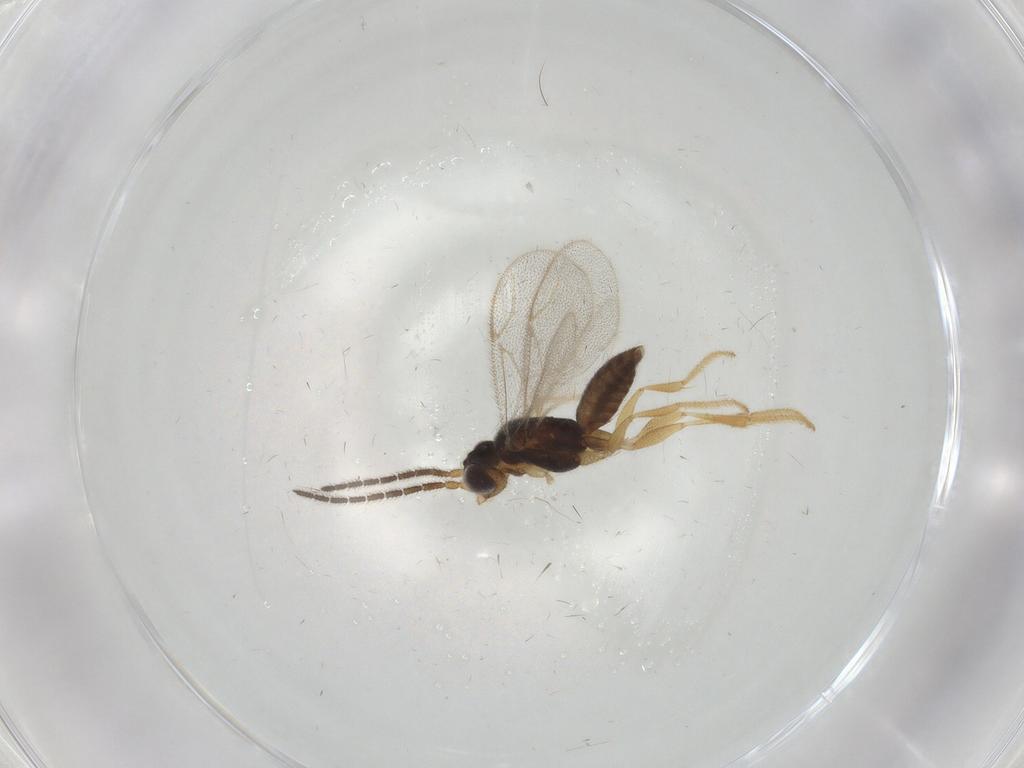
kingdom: Animalia
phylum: Arthropoda
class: Insecta
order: Hymenoptera
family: Dryinidae
